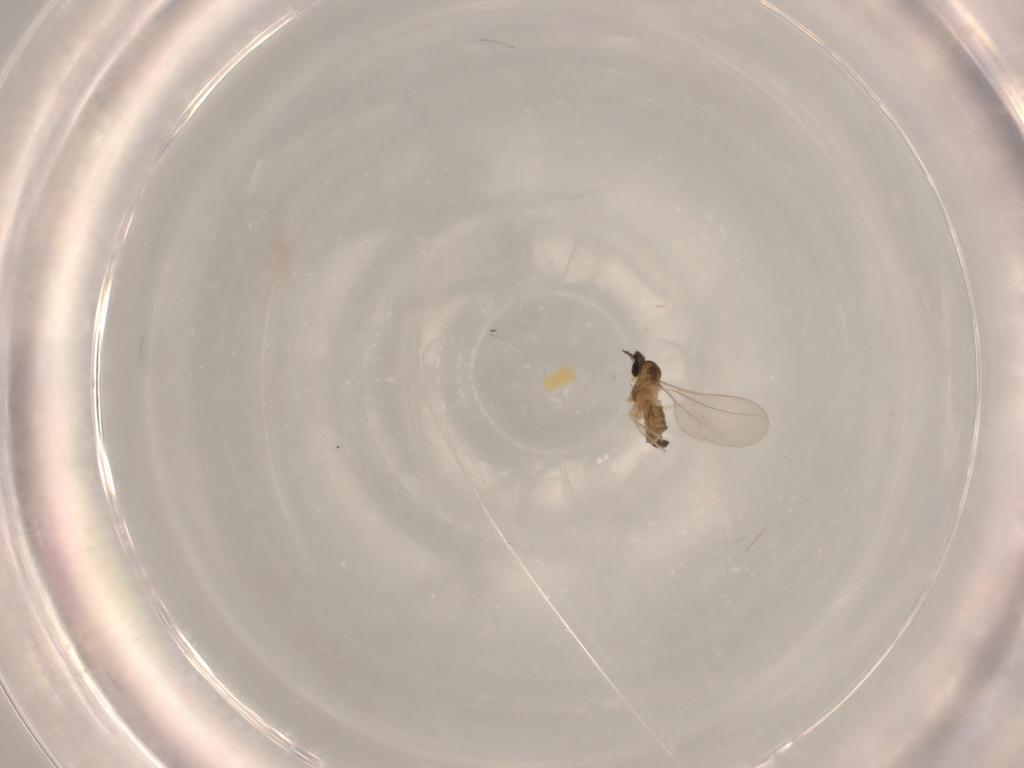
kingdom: Animalia
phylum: Arthropoda
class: Insecta
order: Diptera
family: Cecidomyiidae
